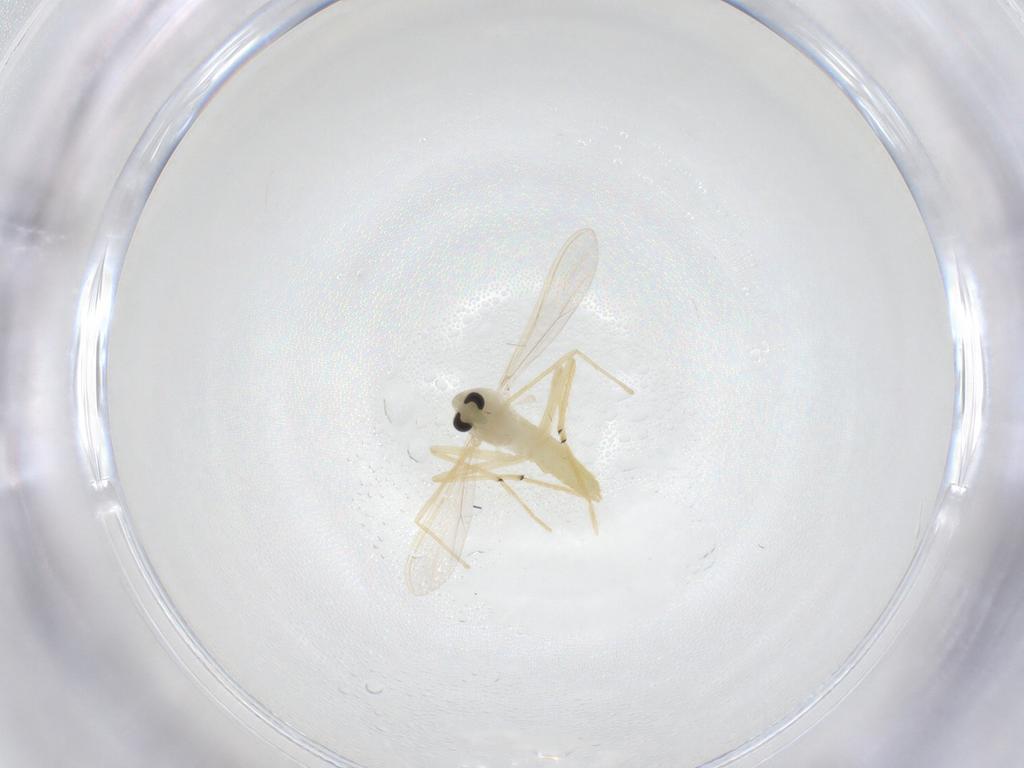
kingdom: Animalia
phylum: Arthropoda
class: Insecta
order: Diptera
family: Chironomidae
